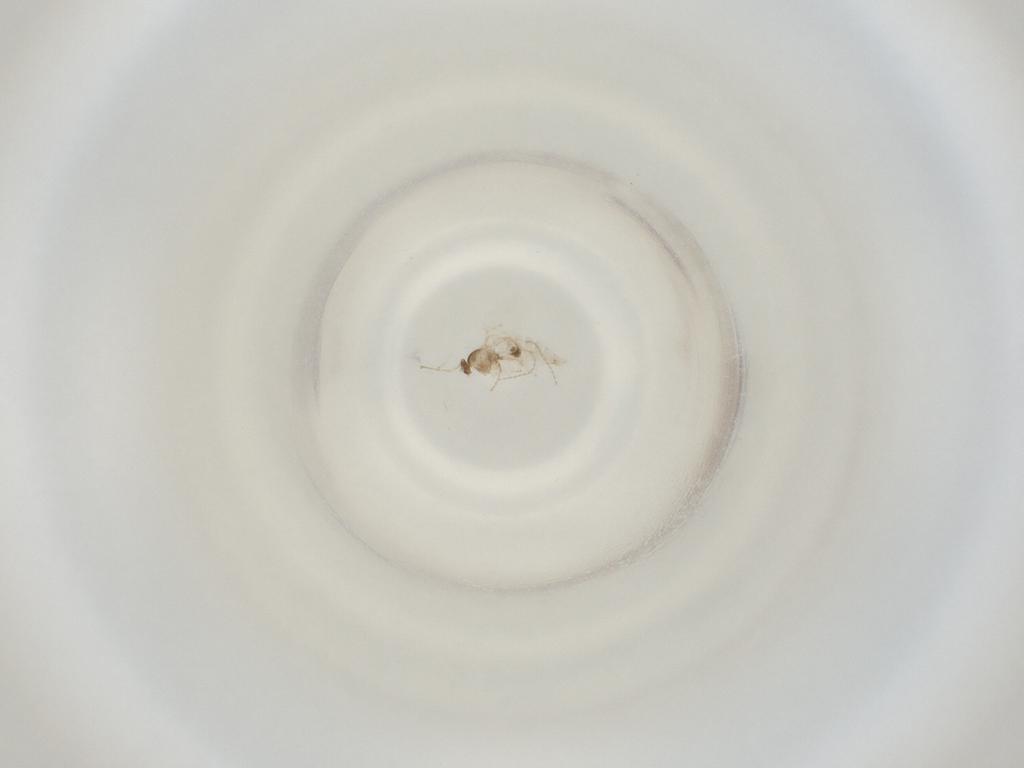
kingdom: Animalia
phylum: Arthropoda
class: Insecta
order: Diptera
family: Cecidomyiidae
